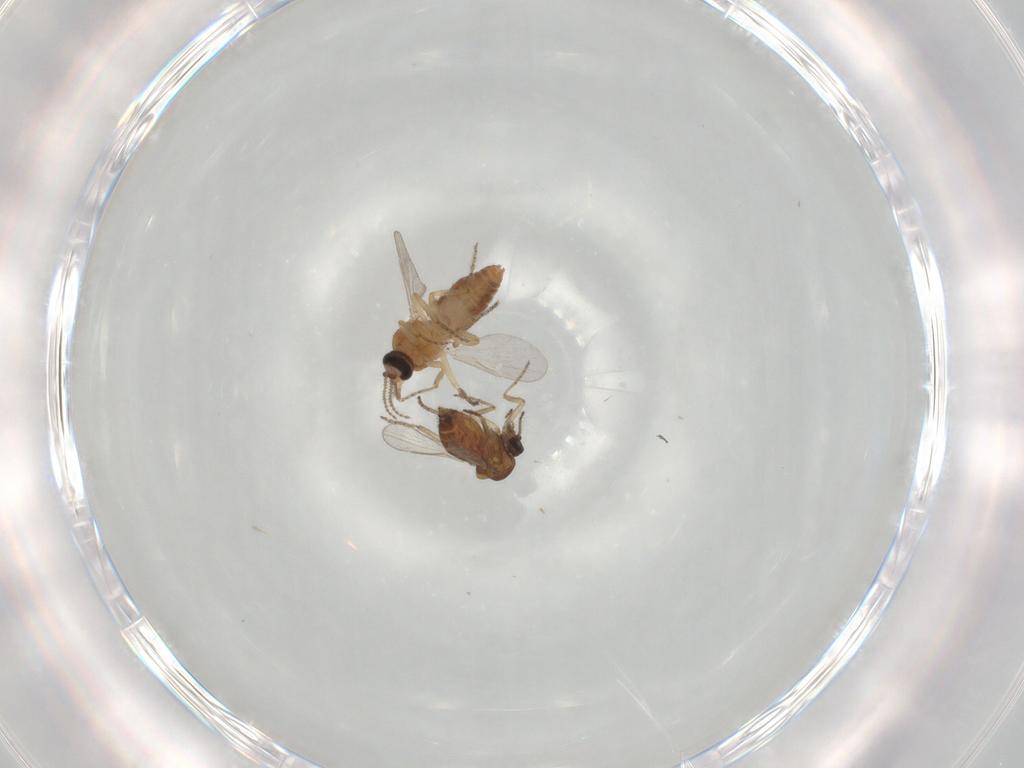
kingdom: Animalia
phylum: Arthropoda
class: Insecta
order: Diptera
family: Ceratopogonidae
